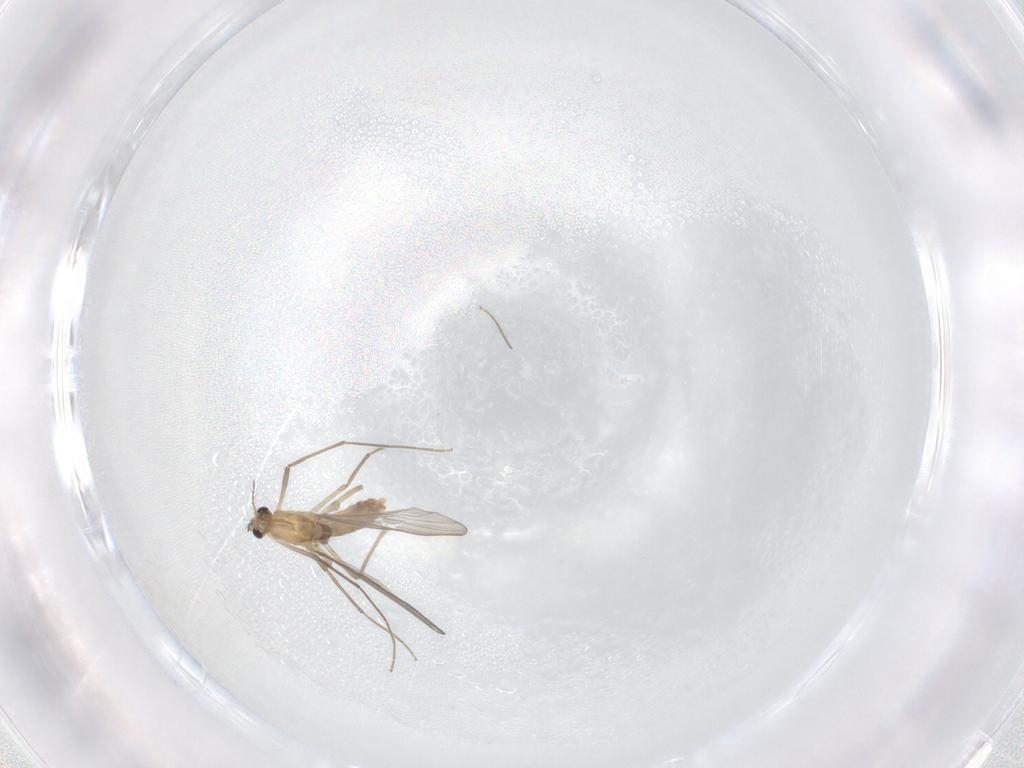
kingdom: Animalia
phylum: Arthropoda
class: Insecta
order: Diptera
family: Chironomidae
